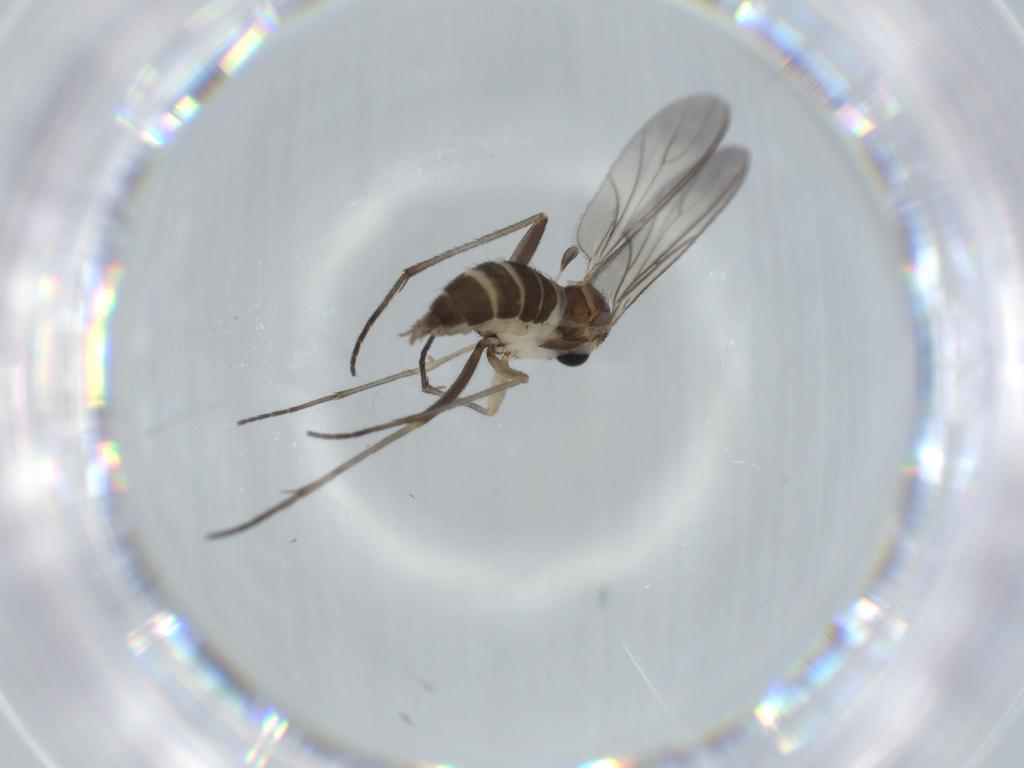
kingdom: Animalia
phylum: Arthropoda
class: Insecta
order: Diptera
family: Sciaridae
